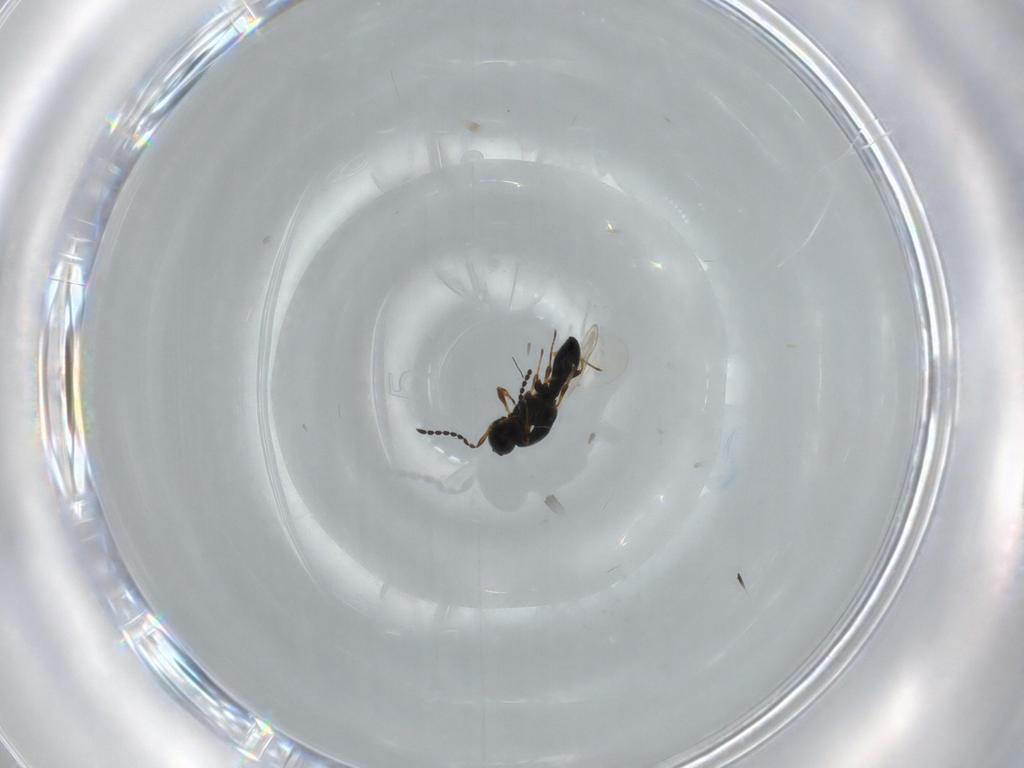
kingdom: Animalia
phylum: Arthropoda
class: Insecta
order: Hymenoptera
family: Platygastridae
